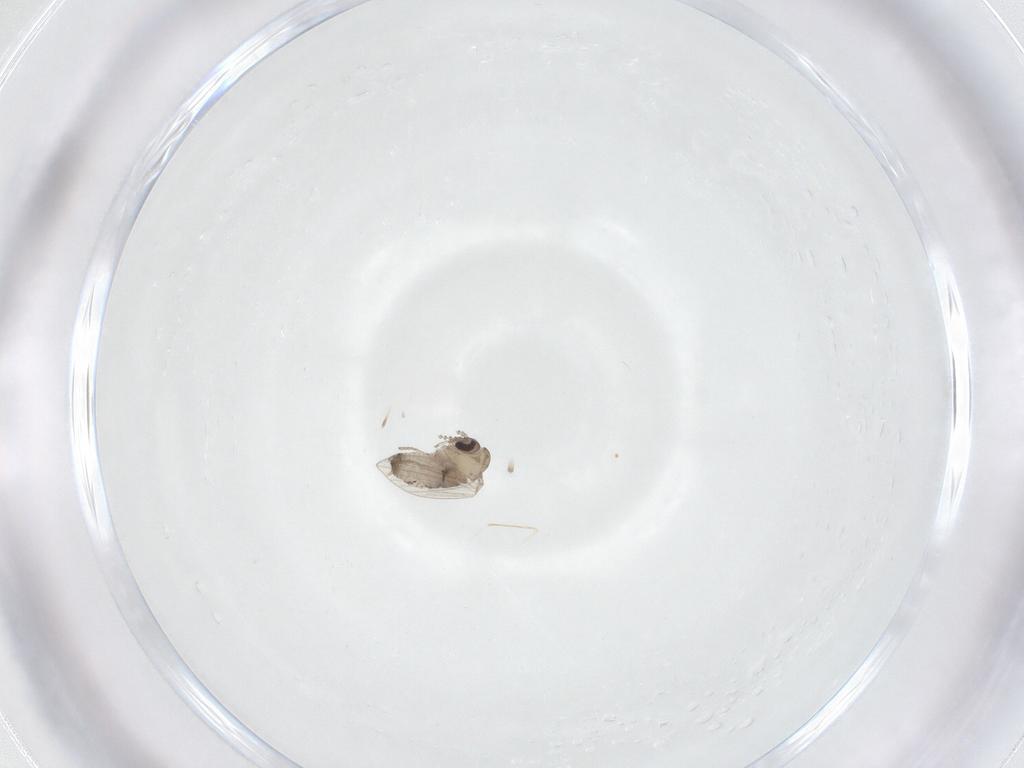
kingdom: Animalia
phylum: Arthropoda
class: Insecta
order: Diptera
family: Psychodidae
